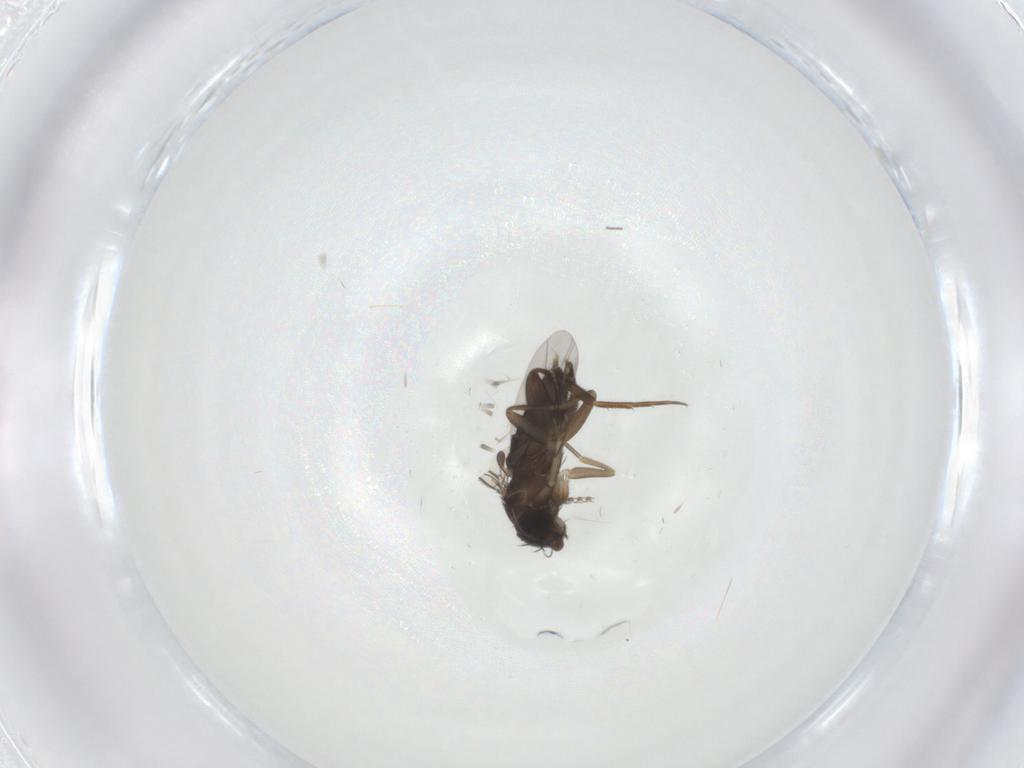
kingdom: Animalia
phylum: Arthropoda
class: Insecta
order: Diptera
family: Phoridae
